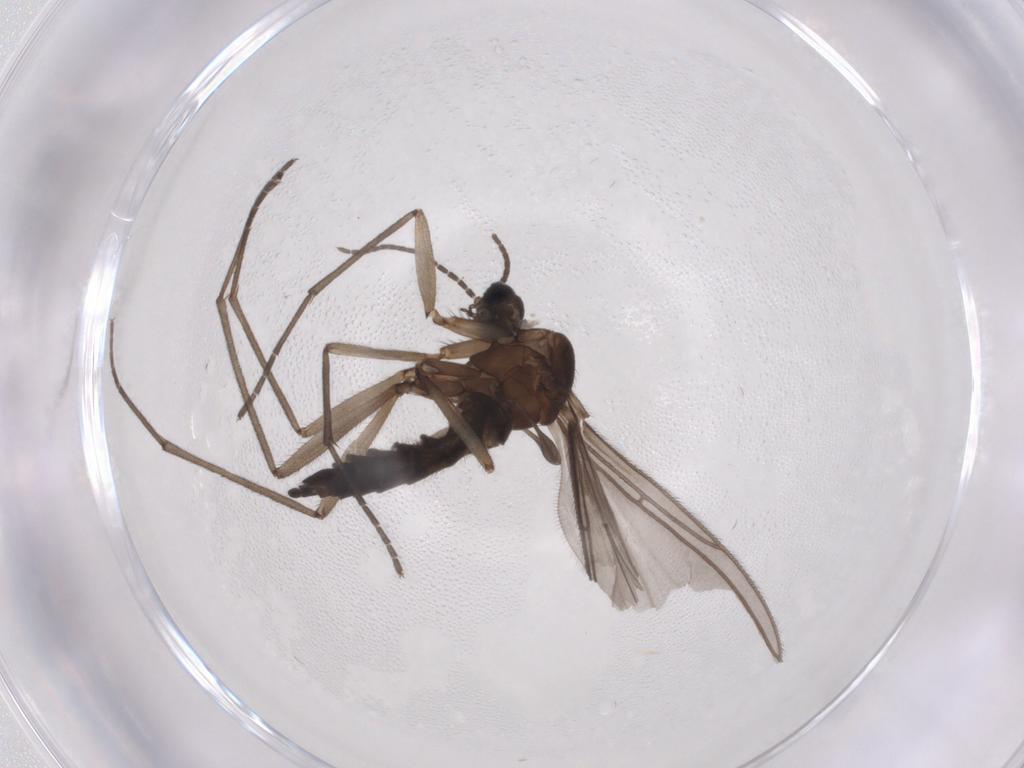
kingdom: Animalia
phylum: Arthropoda
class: Insecta
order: Diptera
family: Sciaridae
